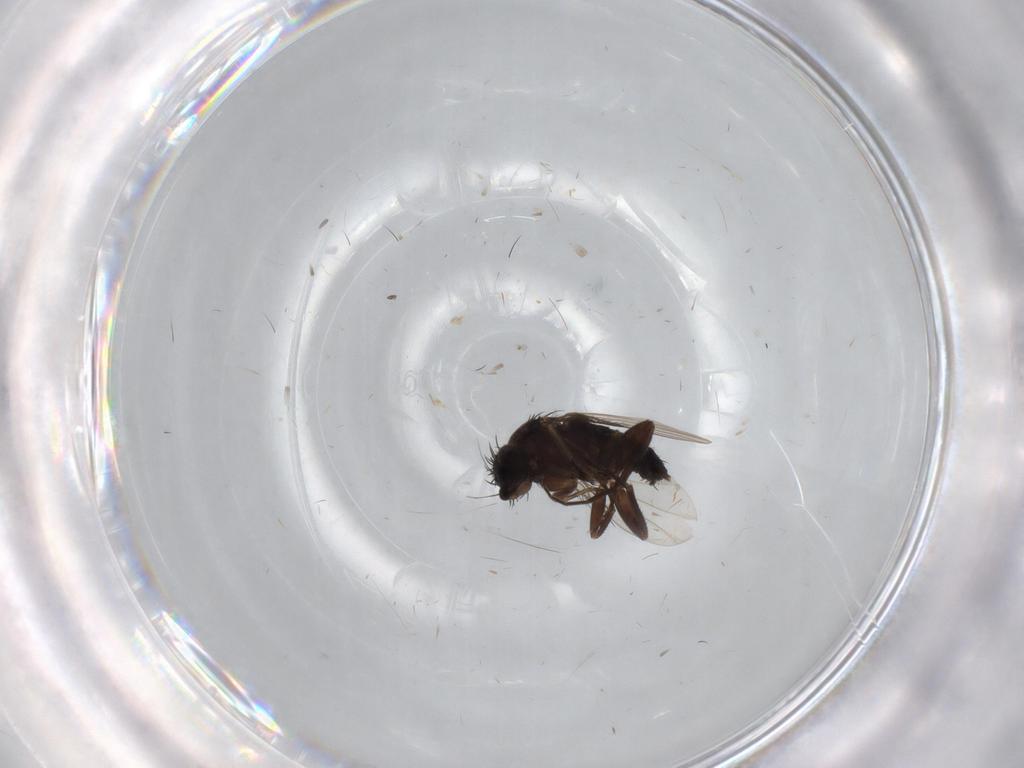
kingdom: Animalia
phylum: Arthropoda
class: Insecta
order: Diptera
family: Phoridae
